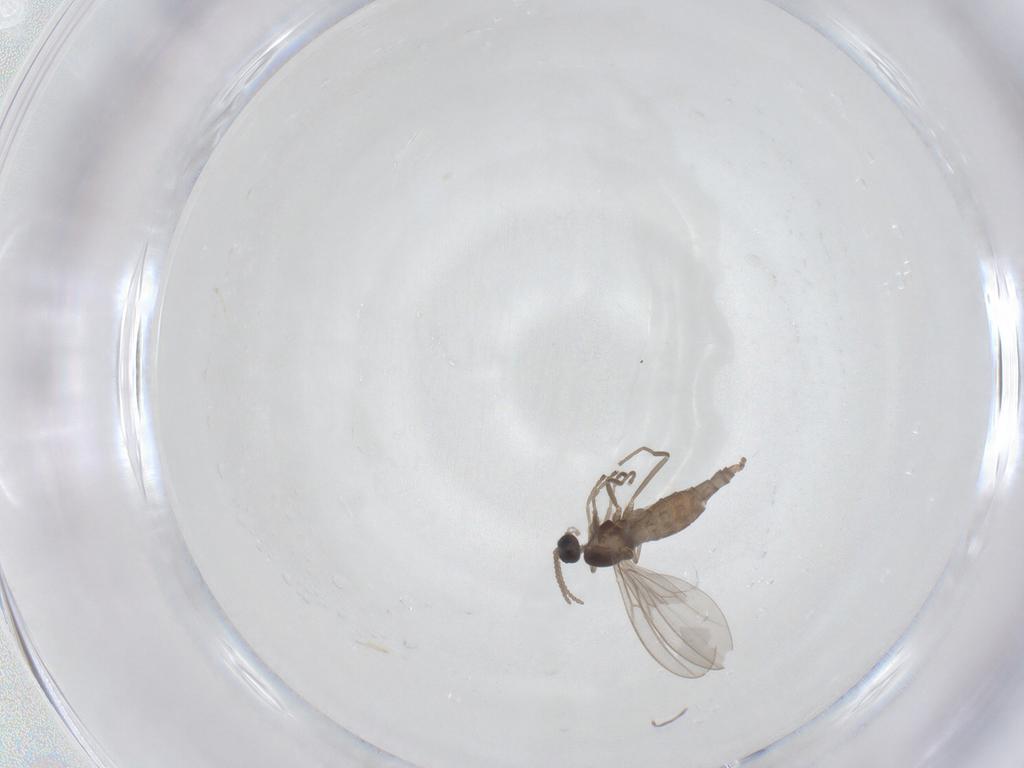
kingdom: Animalia
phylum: Arthropoda
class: Insecta
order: Diptera
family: Cecidomyiidae
